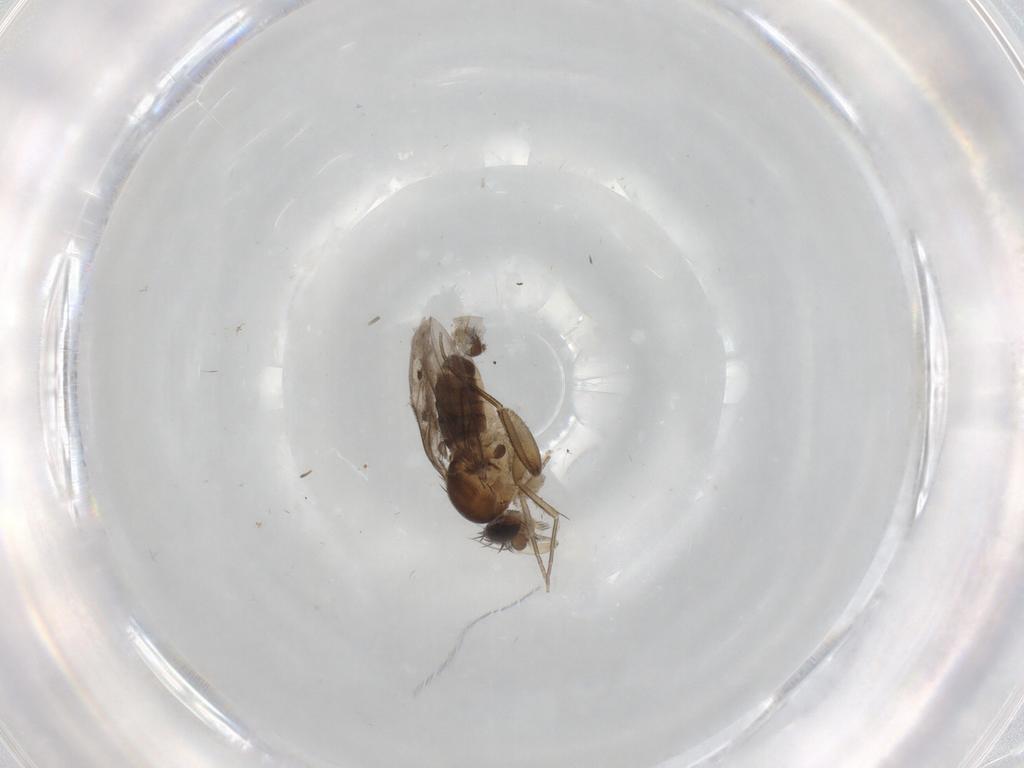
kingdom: Animalia
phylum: Arthropoda
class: Insecta
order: Diptera
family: Phoridae
